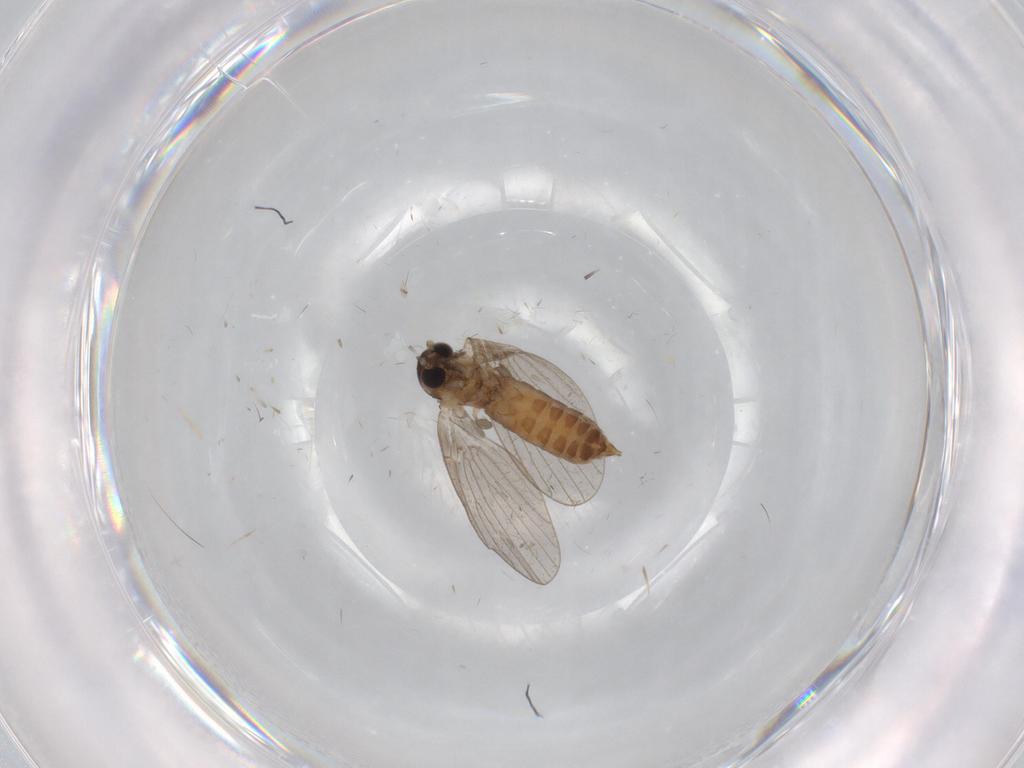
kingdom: Animalia
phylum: Arthropoda
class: Insecta
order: Diptera
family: Psychodidae
